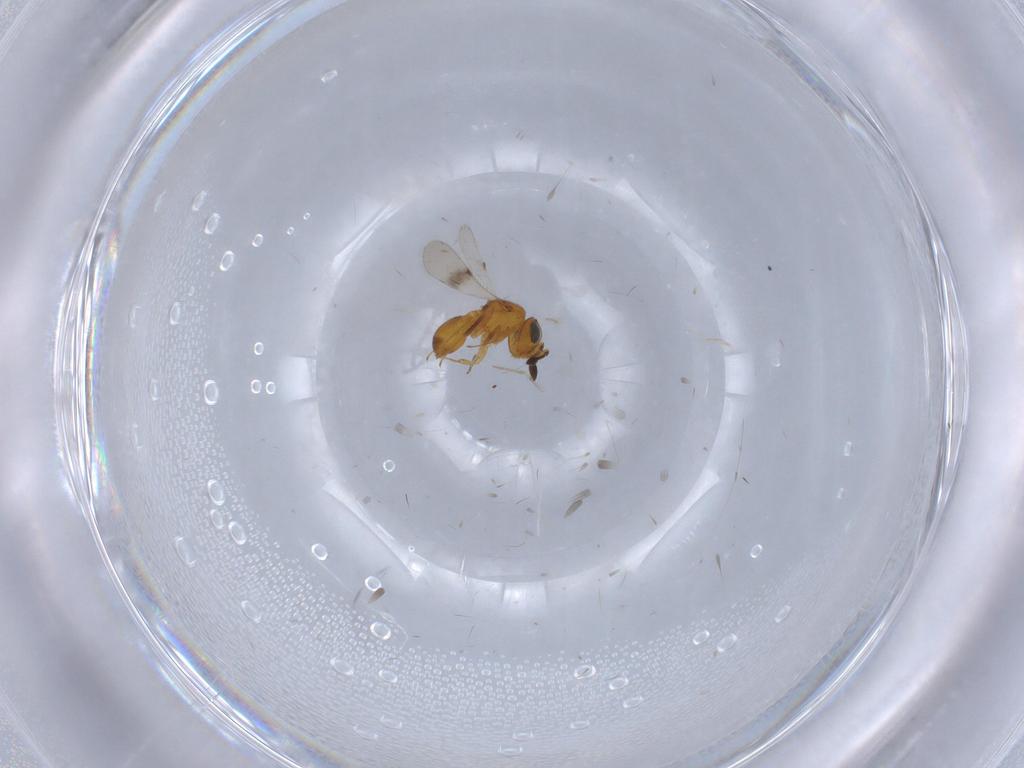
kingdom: Animalia
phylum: Arthropoda
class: Insecta
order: Hymenoptera
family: Scelionidae
